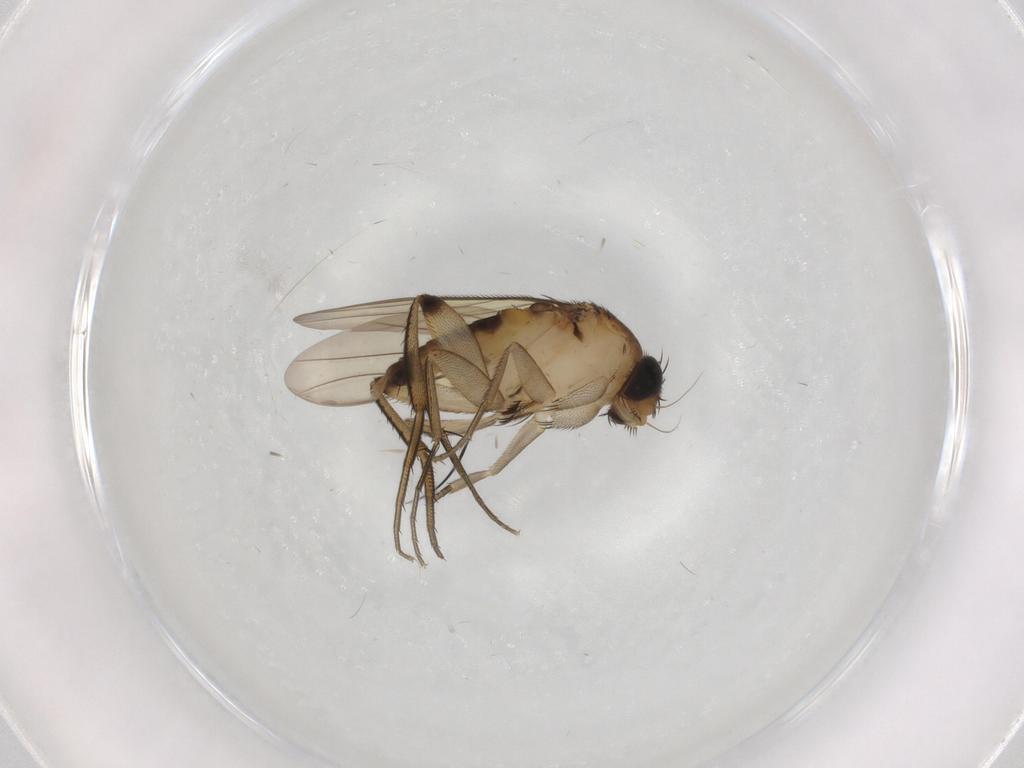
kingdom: Animalia
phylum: Arthropoda
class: Insecta
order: Diptera
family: Phoridae
